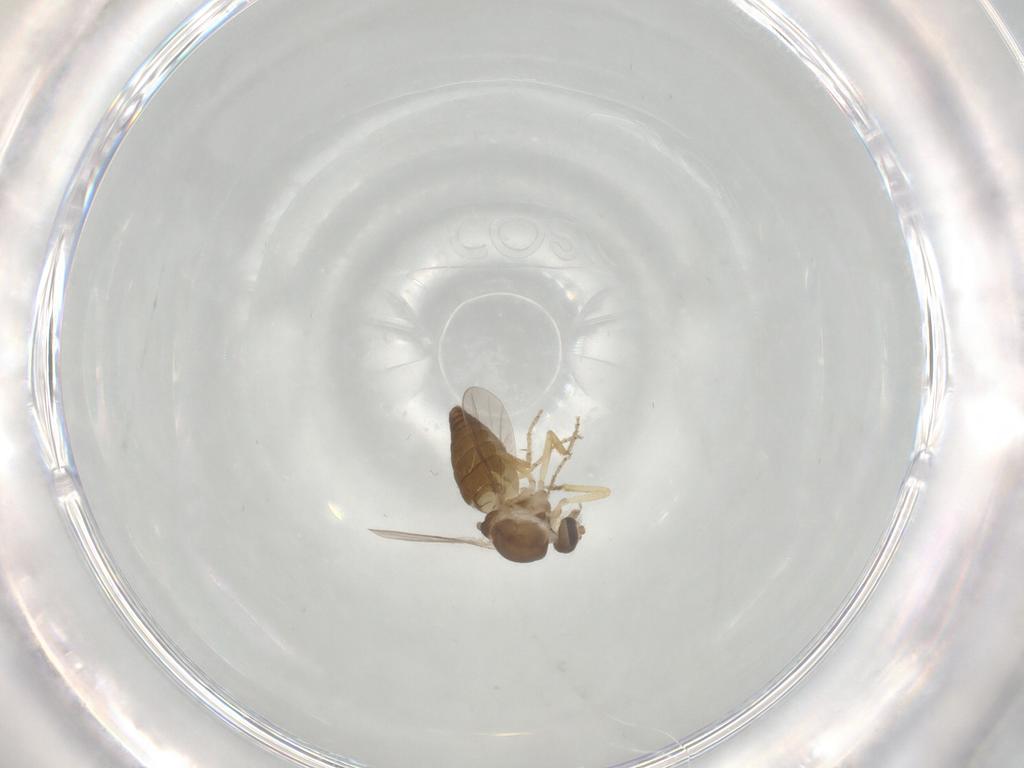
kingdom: Animalia
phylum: Arthropoda
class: Insecta
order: Diptera
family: Ceratopogonidae
